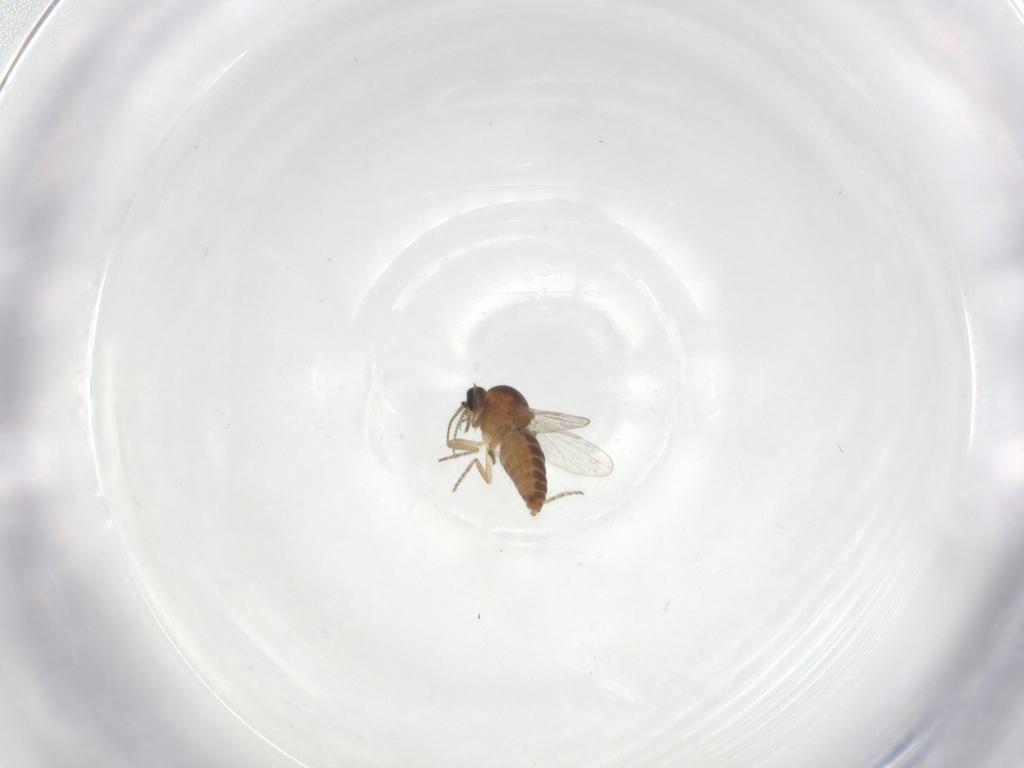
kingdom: Animalia
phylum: Arthropoda
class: Insecta
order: Diptera
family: Ceratopogonidae
